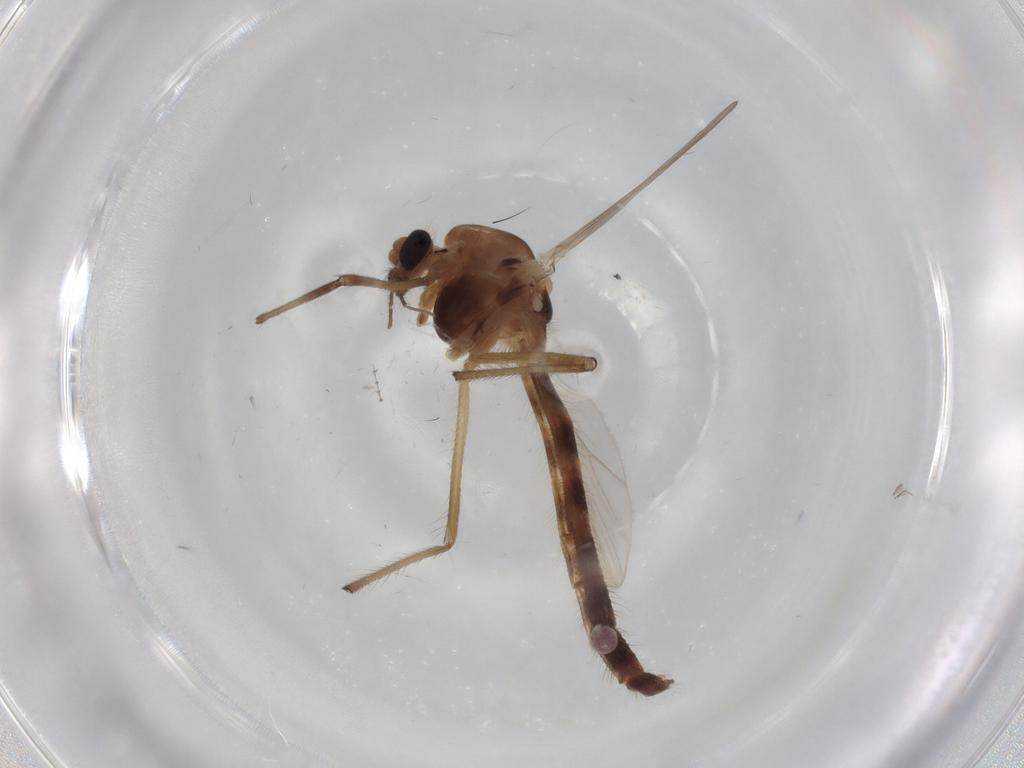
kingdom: Animalia
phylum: Arthropoda
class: Insecta
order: Diptera
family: Chironomidae
